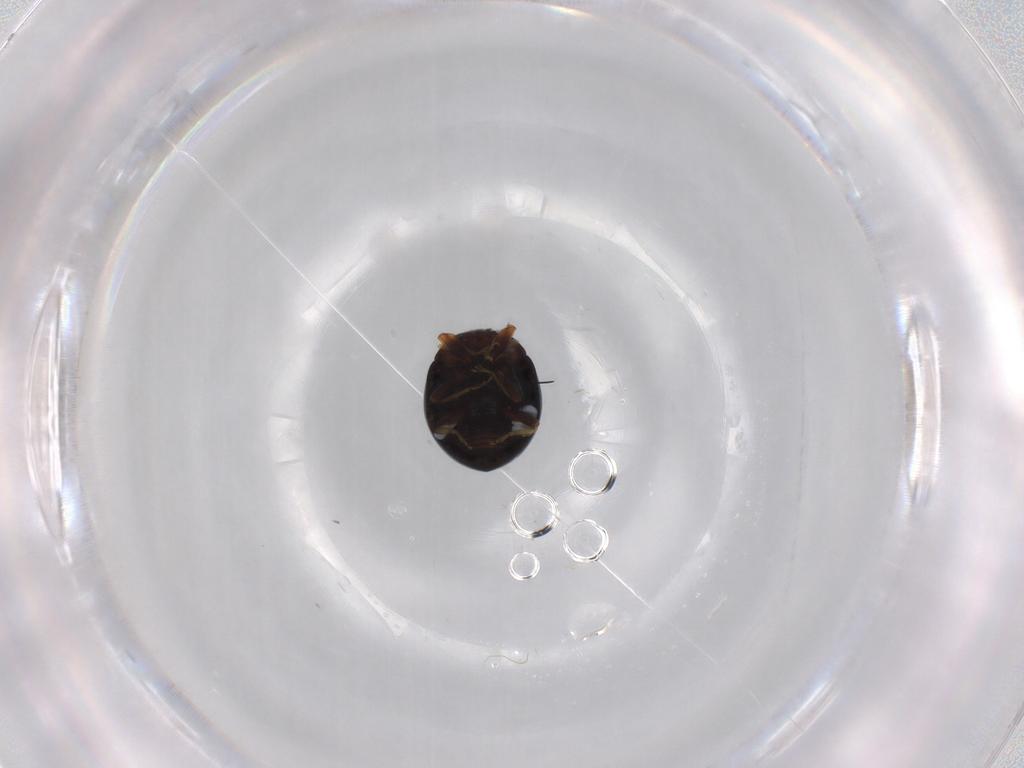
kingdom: Animalia
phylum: Arthropoda
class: Insecta
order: Coleoptera
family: Coccinellidae
